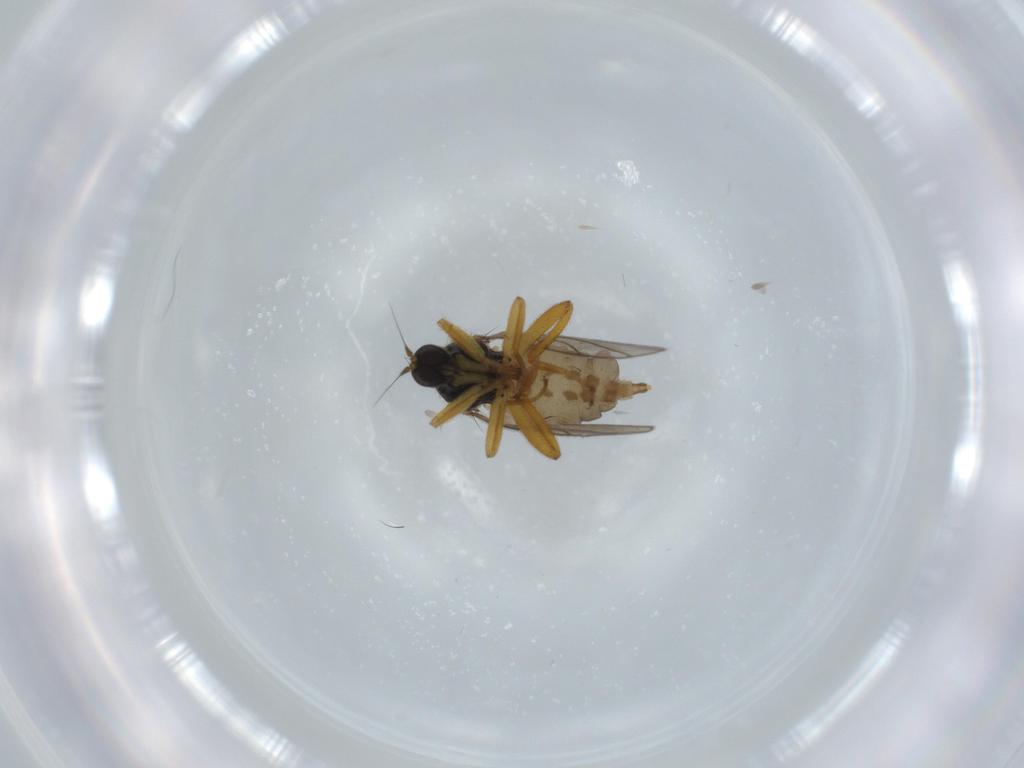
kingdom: Animalia
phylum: Arthropoda
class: Insecta
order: Diptera
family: Hybotidae
